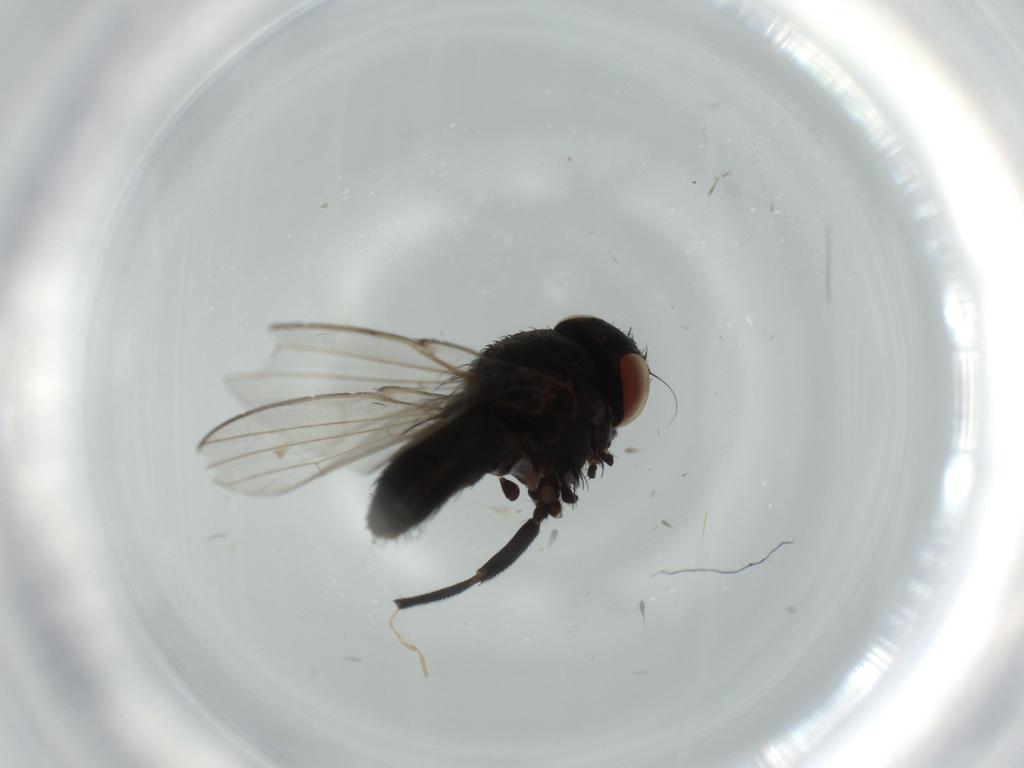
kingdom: Animalia
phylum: Arthropoda
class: Insecta
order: Diptera
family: Milichiidae
